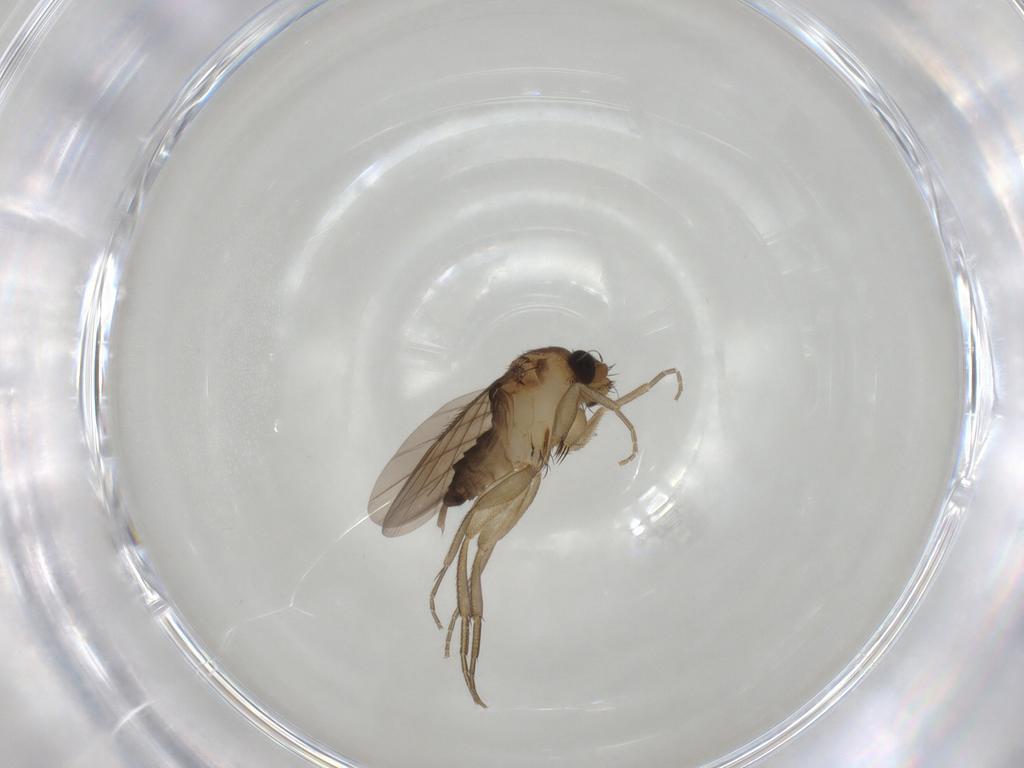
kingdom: Animalia
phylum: Arthropoda
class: Insecta
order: Diptera
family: Phoridae
